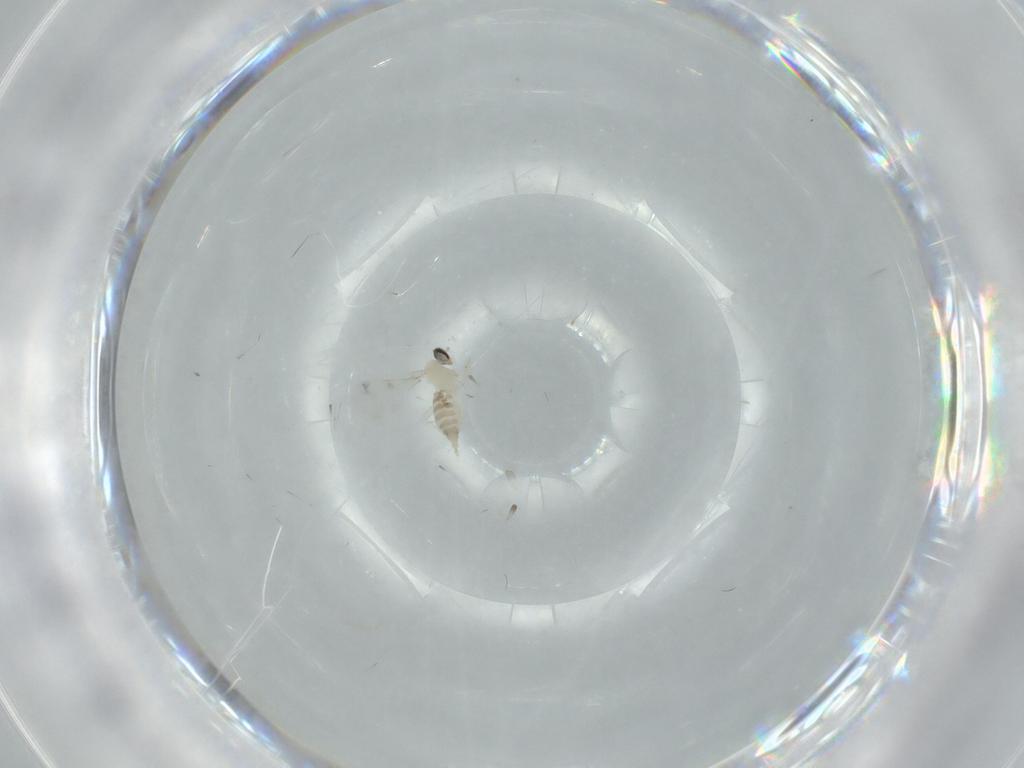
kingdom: Animalia
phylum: Arthropoda
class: Insecta
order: Diptera
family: Cecidomyiidae
